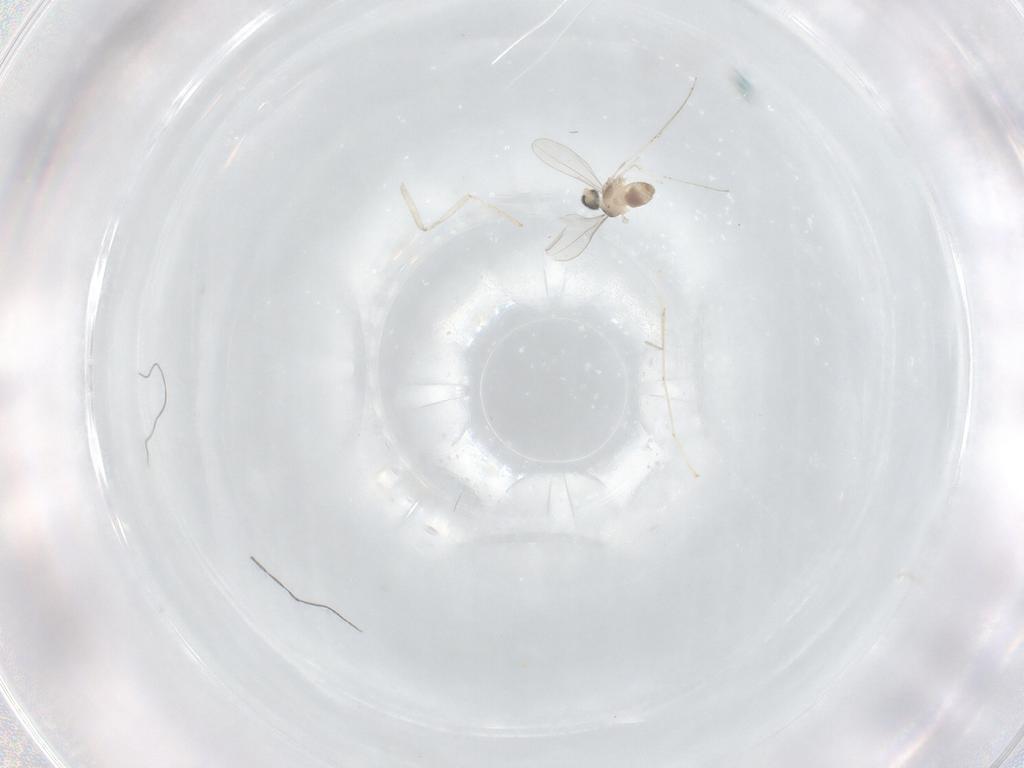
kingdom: Animalia
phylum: Arthropoda
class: Insecta
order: Diptera
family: Cecidomyiidae
